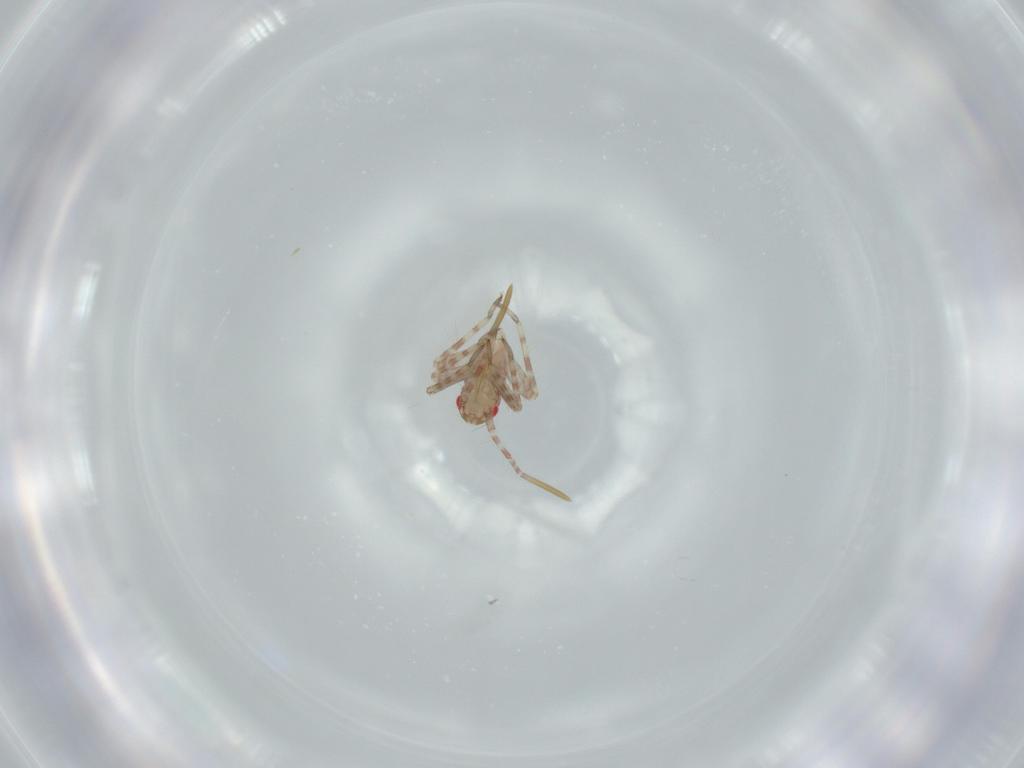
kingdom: Animalia
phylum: Arthropoda
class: Insecta
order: Hemiptera
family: Miridae
